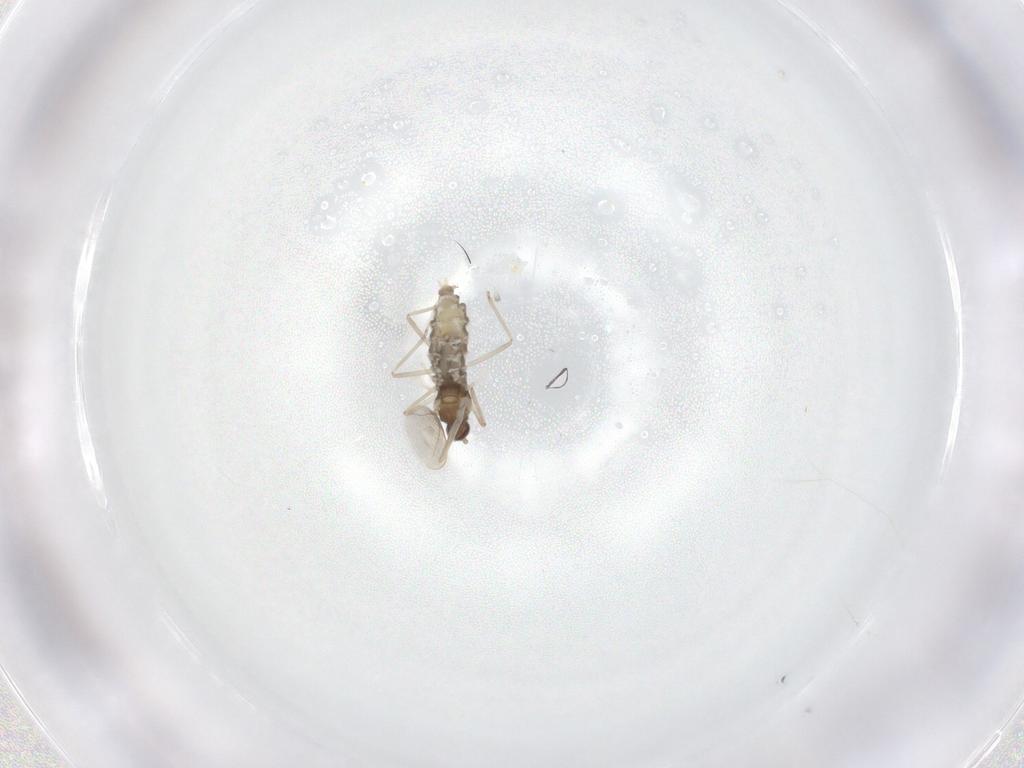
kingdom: Animalia
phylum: Arthropoda
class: Insecta
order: Diptera
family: Cecidomyiidae
